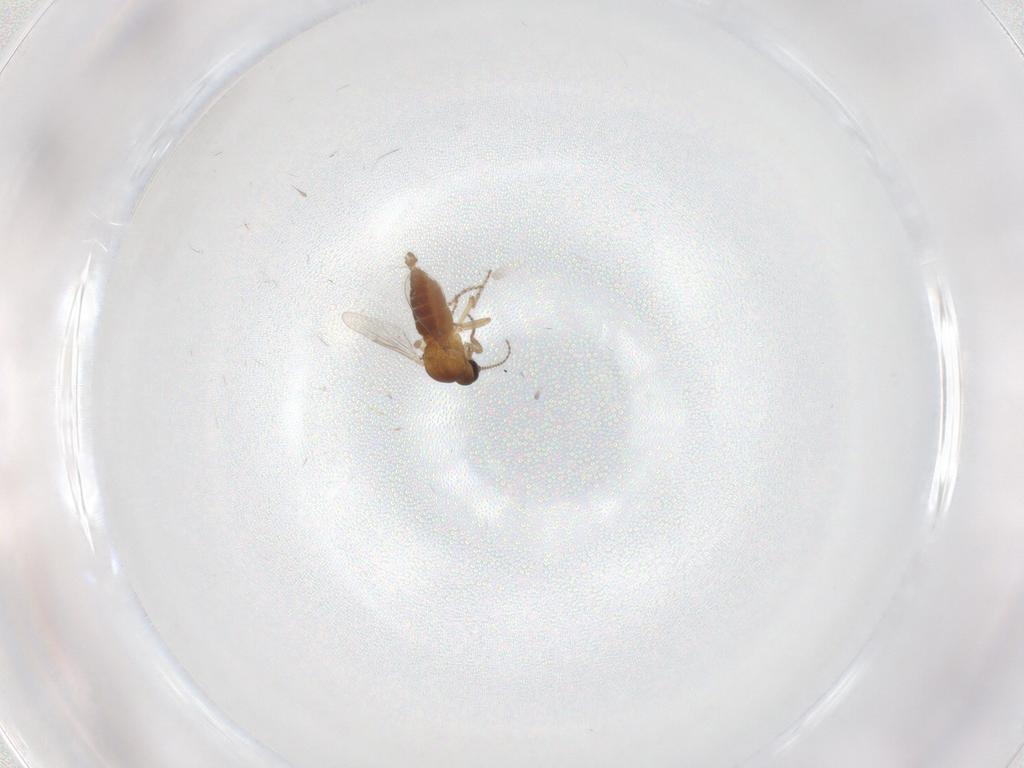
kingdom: Animalia
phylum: Arthropoda
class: Insecta
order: Diptera
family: Ceratopogonidae
